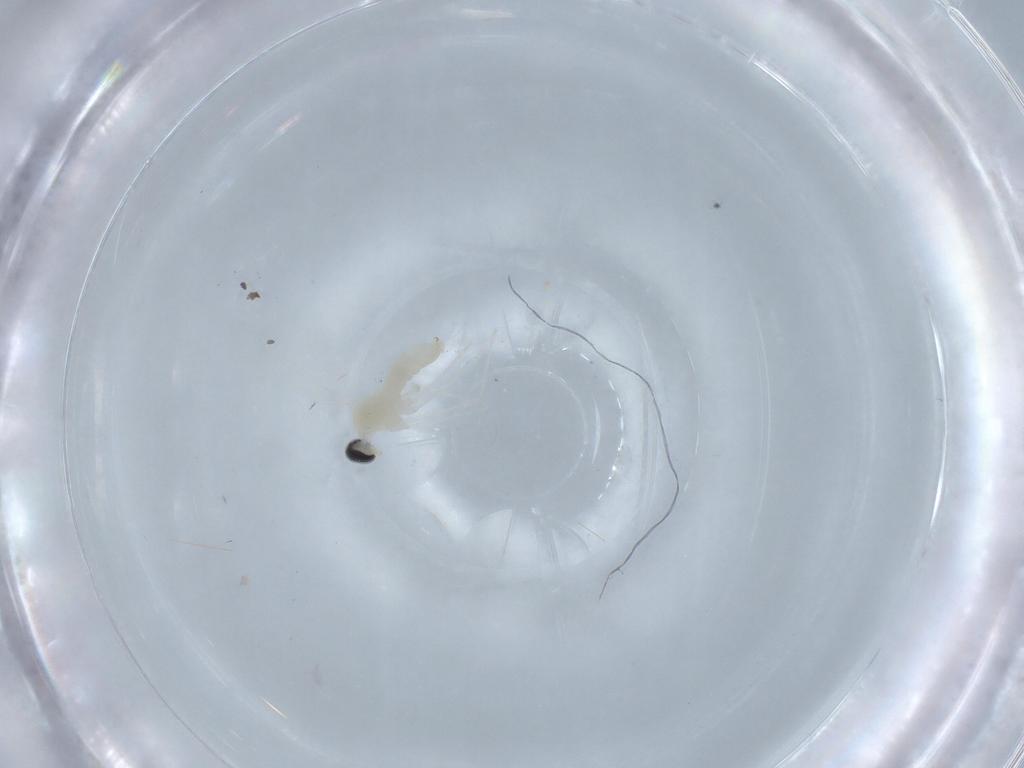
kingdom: Animalia
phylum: Arthropoda
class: Insecta
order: Diptera
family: Cecidomyiidae
